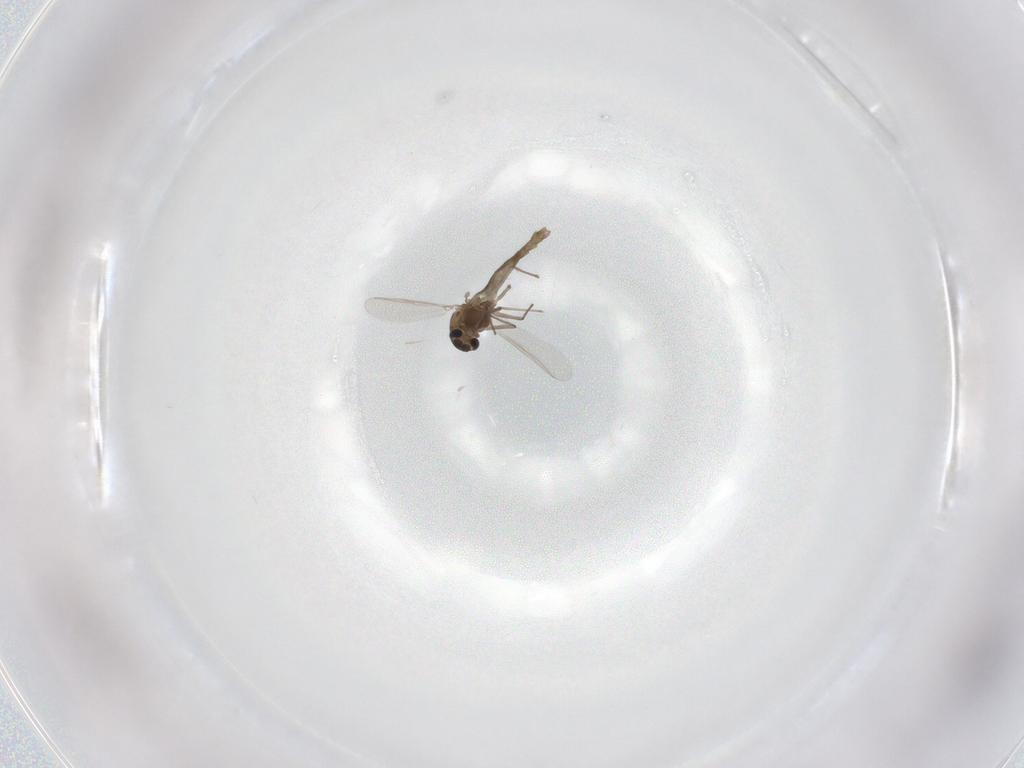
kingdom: Animalia
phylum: Arthropoda
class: Insecta
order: Diptera
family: Chironomidae
